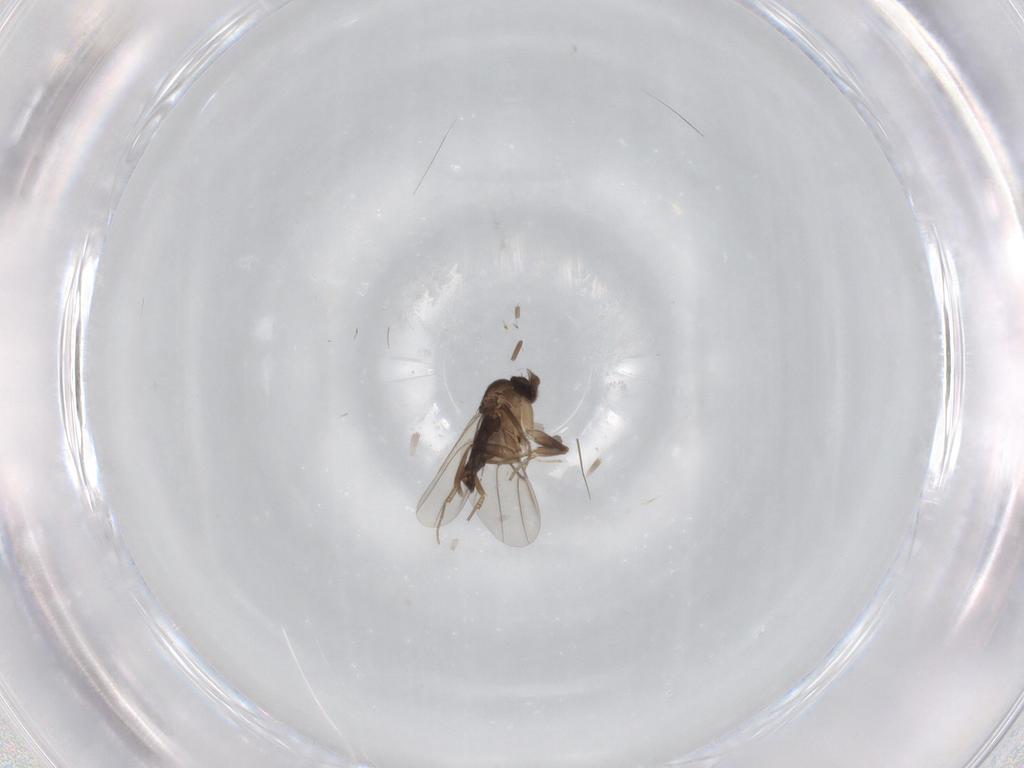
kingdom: Animalia
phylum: Arthropoda
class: Insecta
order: Diptera
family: Phoridae
